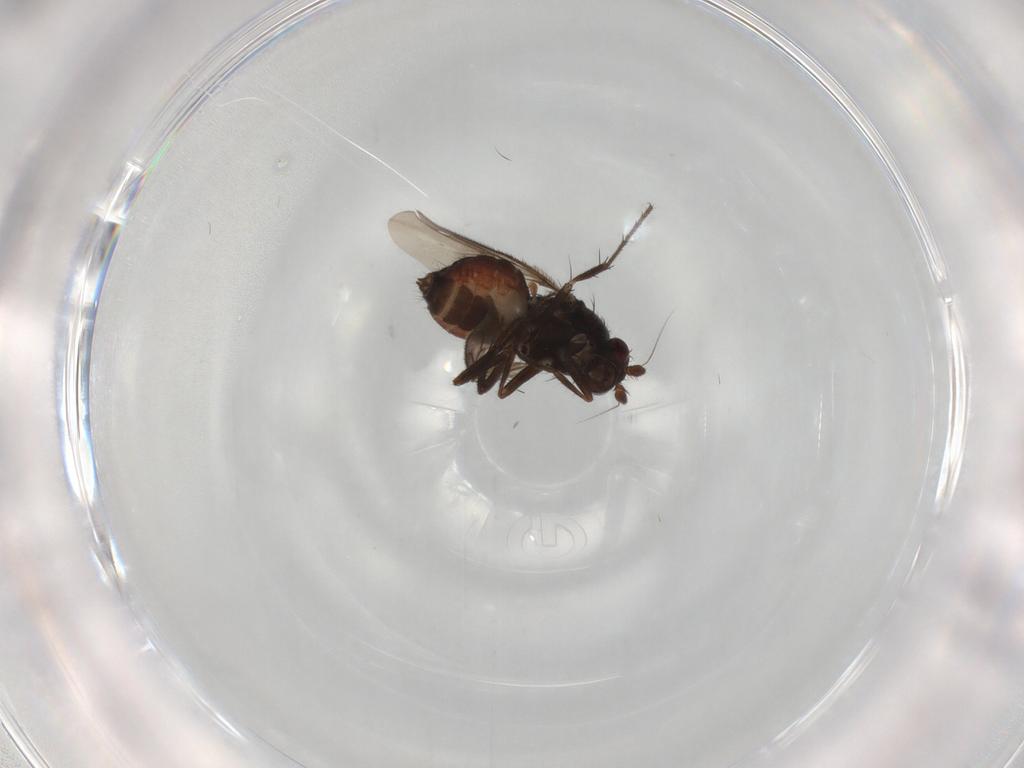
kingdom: Animalia
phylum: Arthropoda
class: Insecta
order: Diptera
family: Sphaeroceridae
